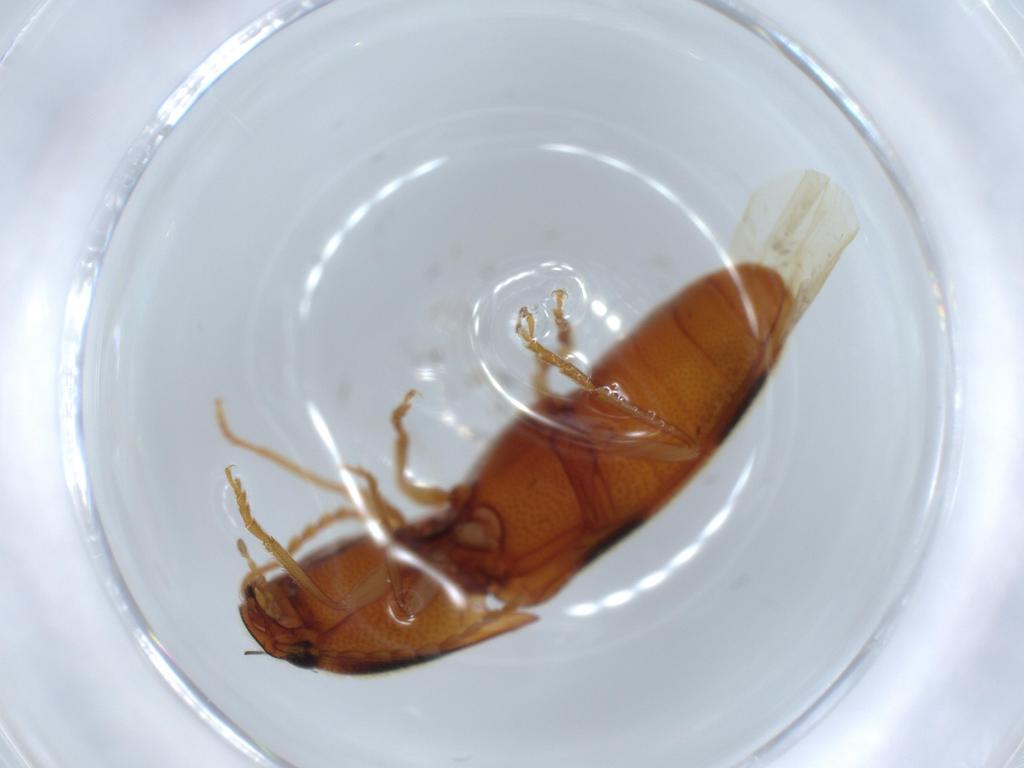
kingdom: Animalia
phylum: Arthropoda
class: Insecta
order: Coleoptera
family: Elateridae
